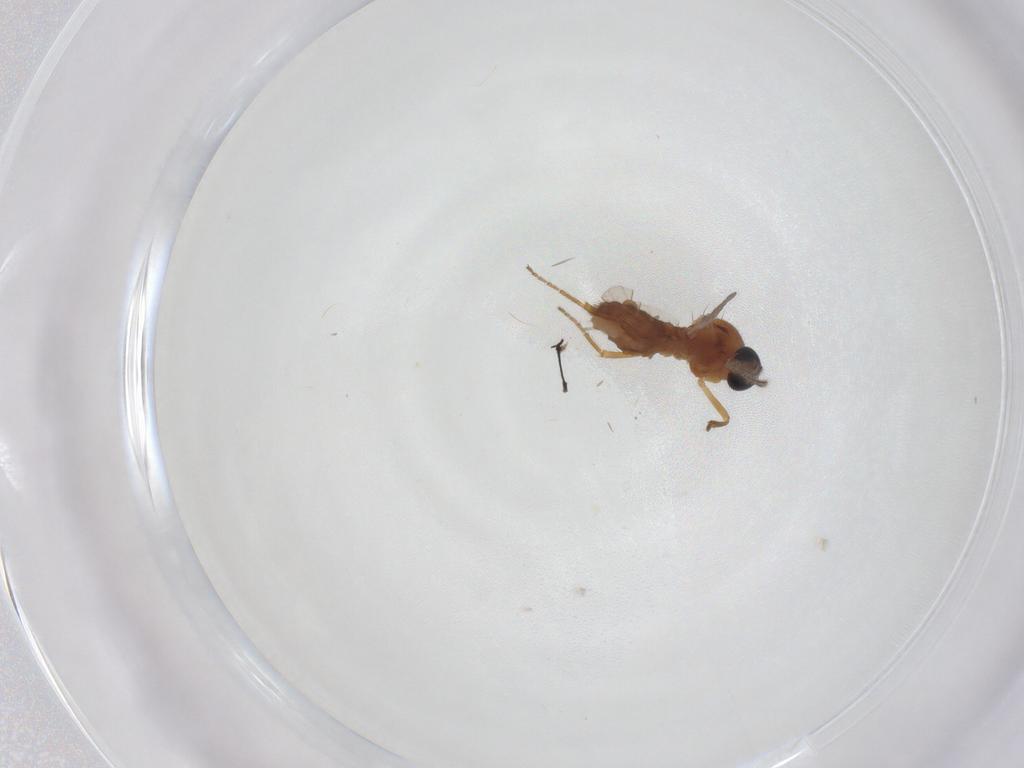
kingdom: Animalia
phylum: Arthropoda
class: Insecta
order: Diptera
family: Ceratopogonidae
